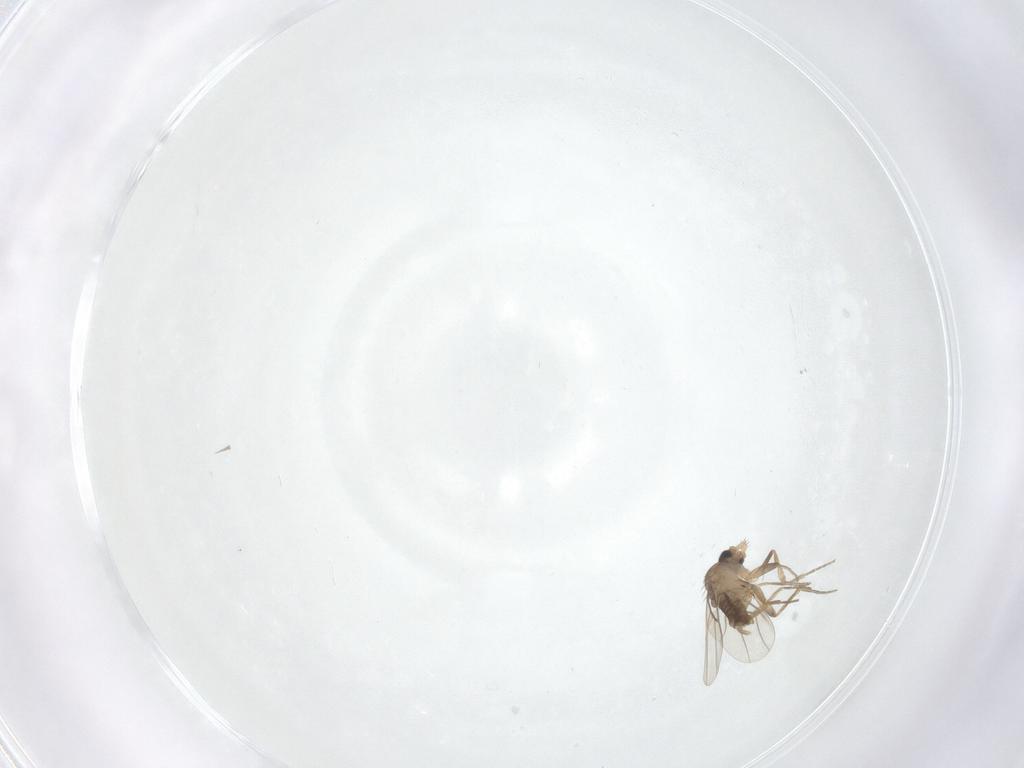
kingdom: Animalia
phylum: Arthropoda
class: Insecta
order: Diptera
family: Phoridae
